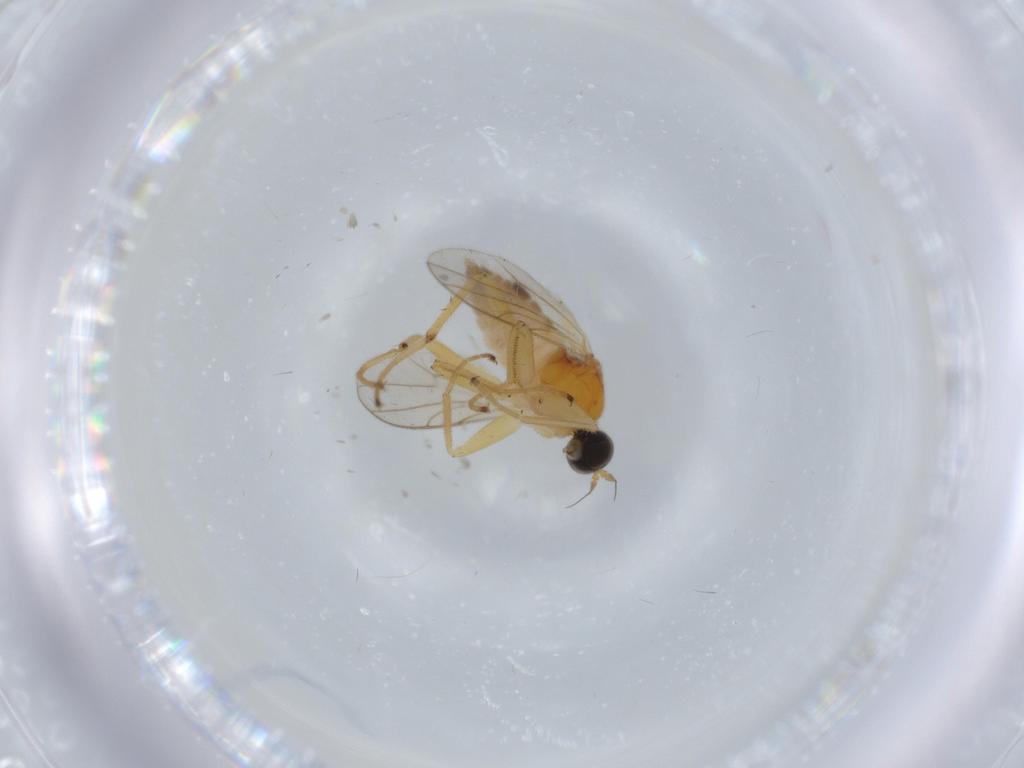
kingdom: Animalia
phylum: Arthropoda
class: Insecta
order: Diptera
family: Hybotidae
